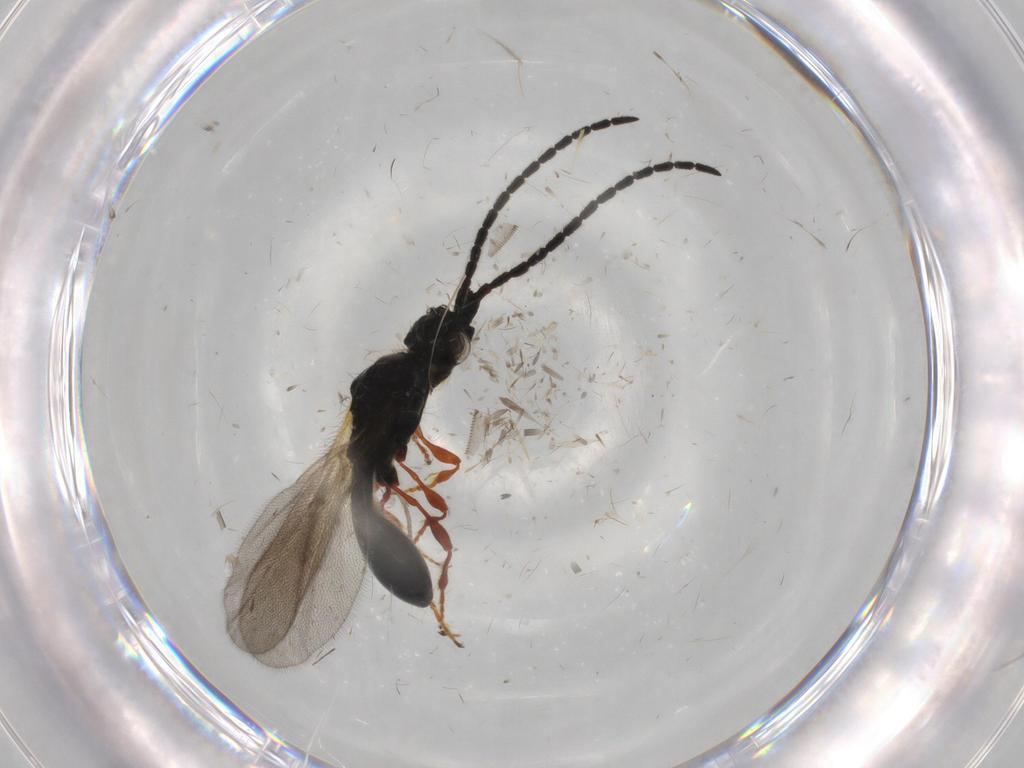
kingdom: Animalia
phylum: Arthropoda
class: Insecta
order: Hymenoptera
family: Diapriidae
